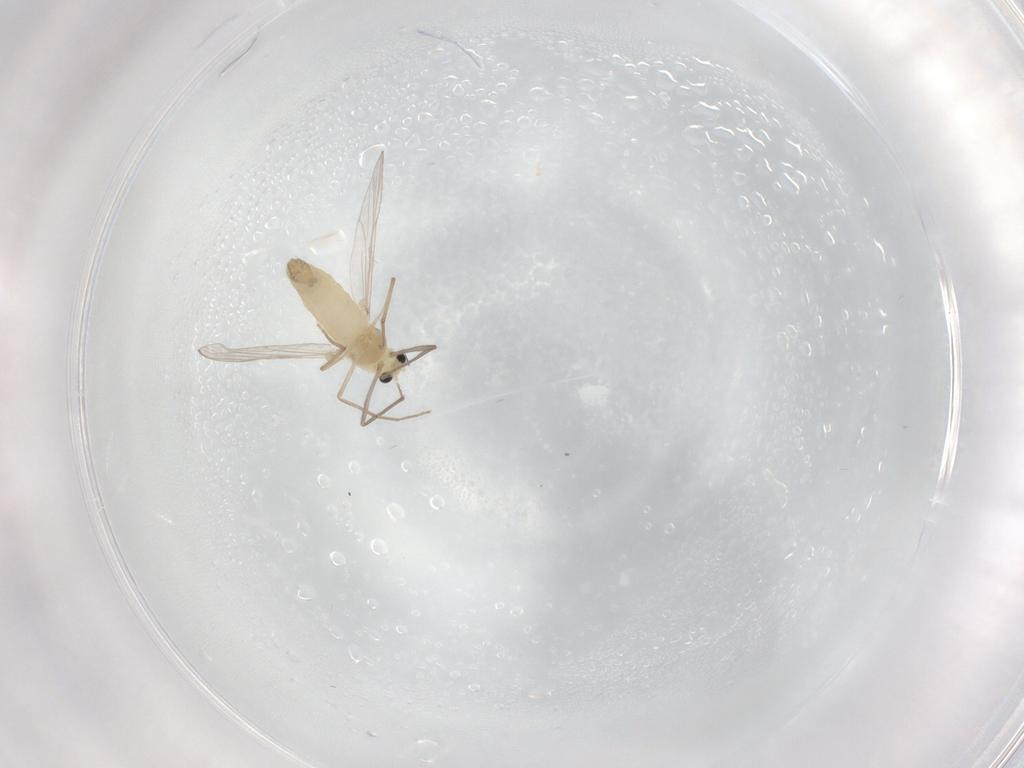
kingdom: Animalia
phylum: Arthropoda
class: Insecta
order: Diptera
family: Chironomidae
